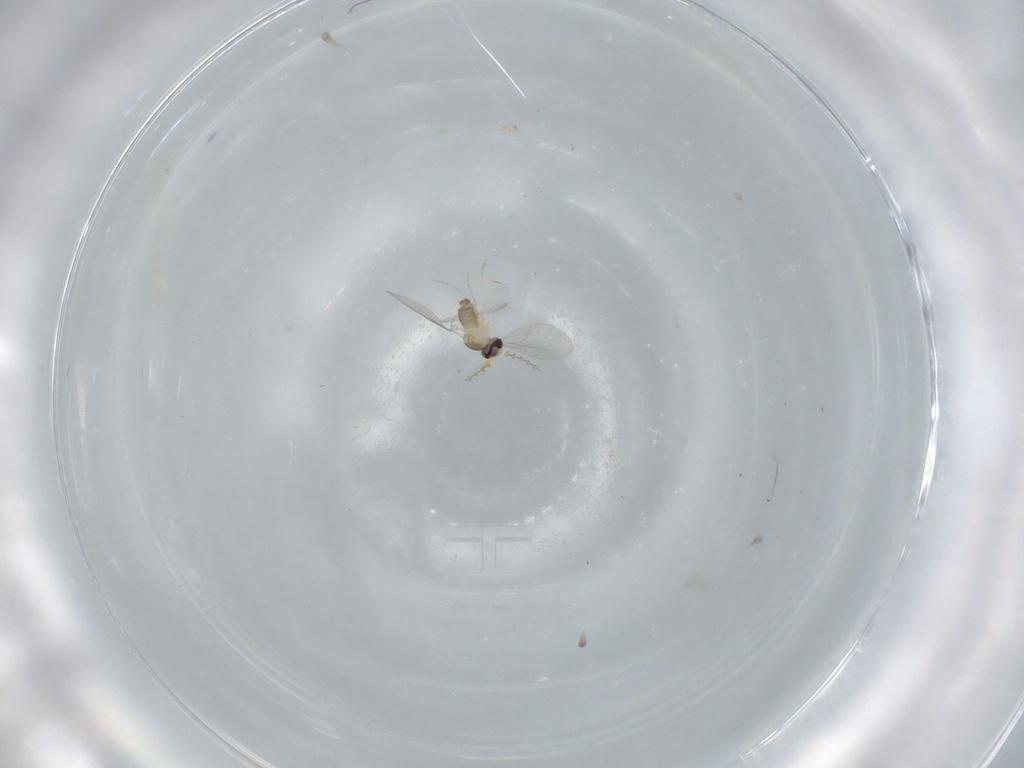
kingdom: Animalia
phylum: Arthropoda
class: Insecta
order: Diptera
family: Cecidomyiidae
